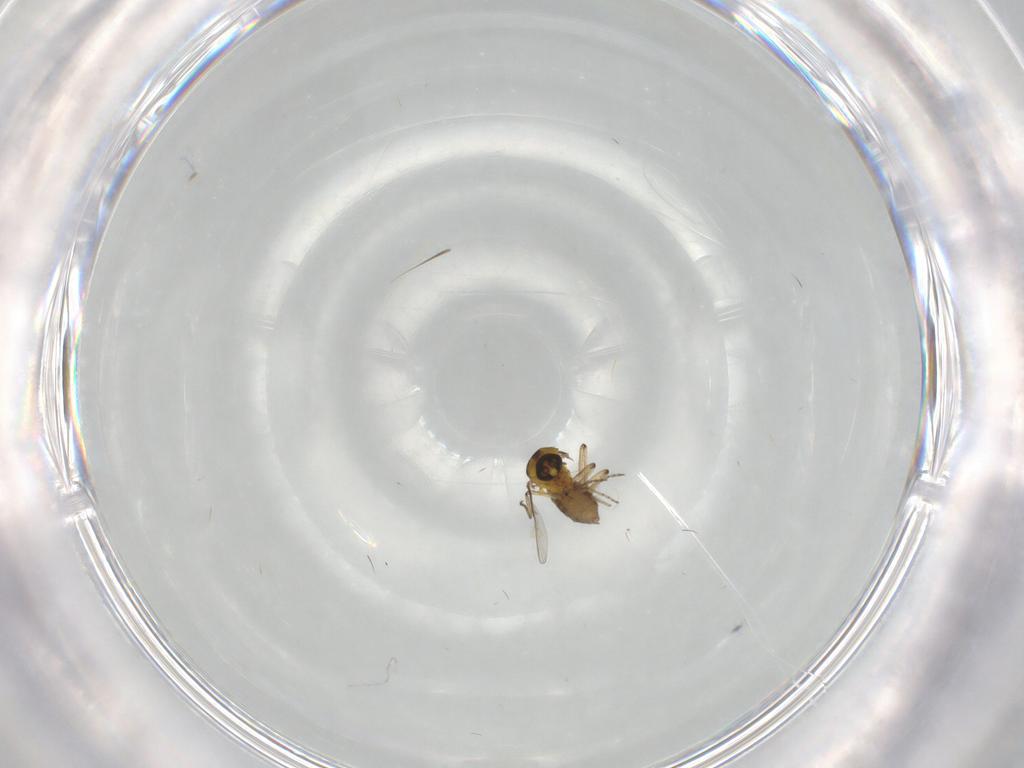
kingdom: Animalia
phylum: Arthropoda
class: Insecta
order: Diptera
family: Ceratopogonidae
